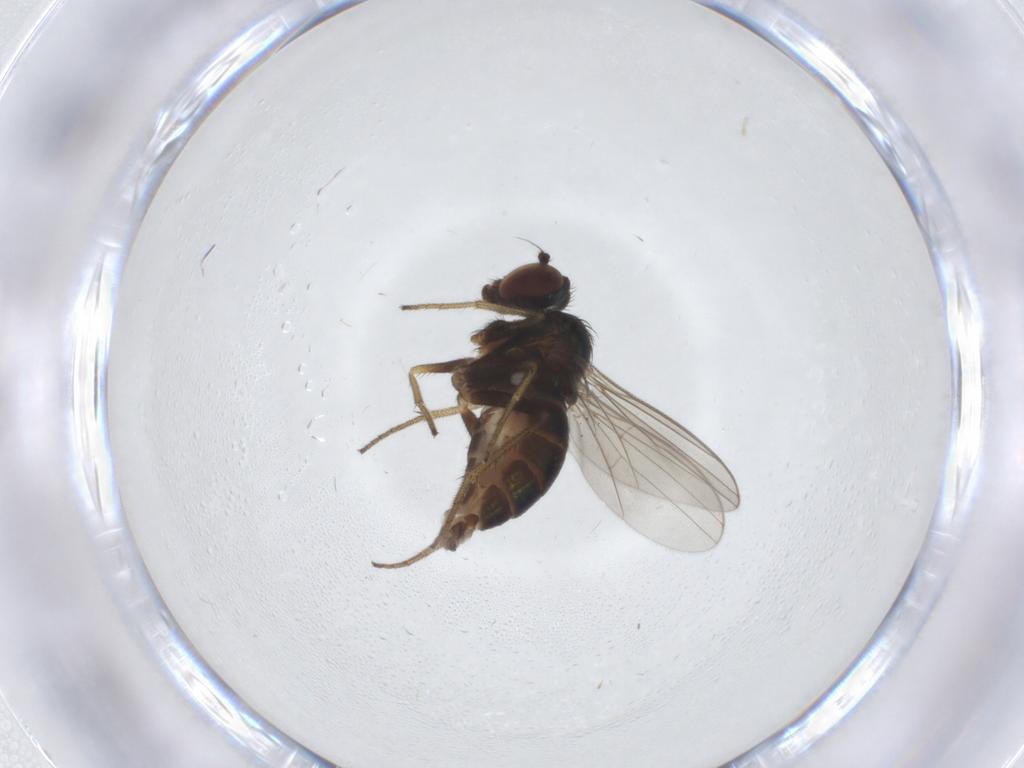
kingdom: Animalia
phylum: Arthropoda
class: Insecta
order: Diptera
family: Dolichopodidae
